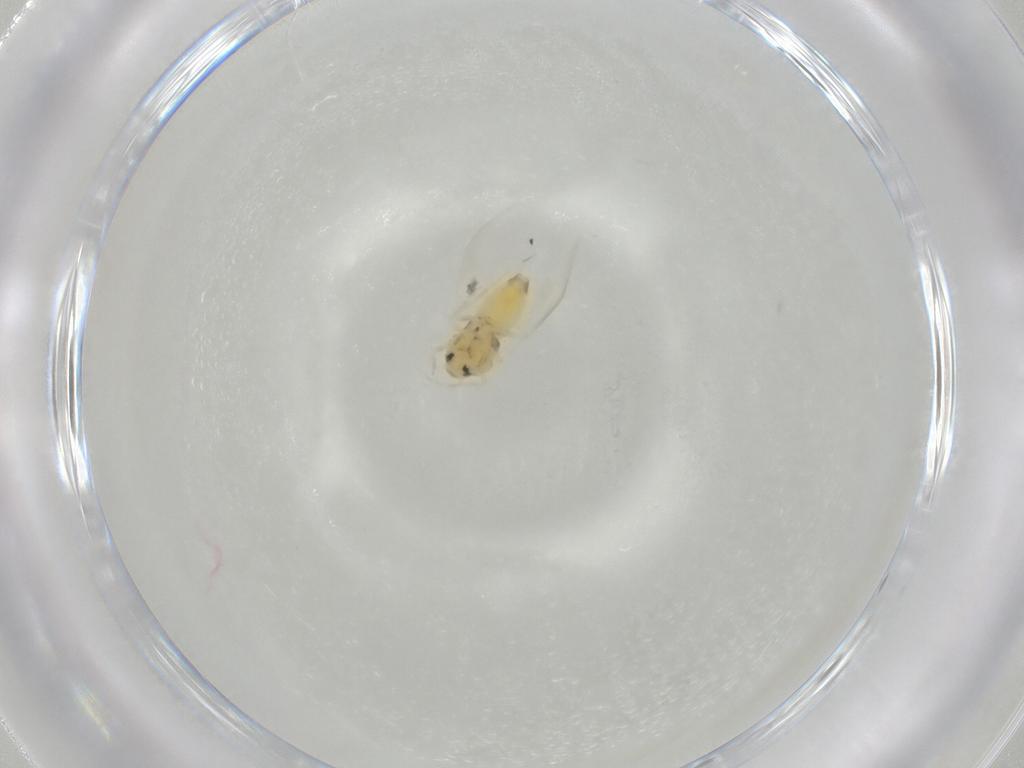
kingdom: Animalia
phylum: Arthropoda
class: Insecta
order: Hemiptera
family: Aleyrodidae
